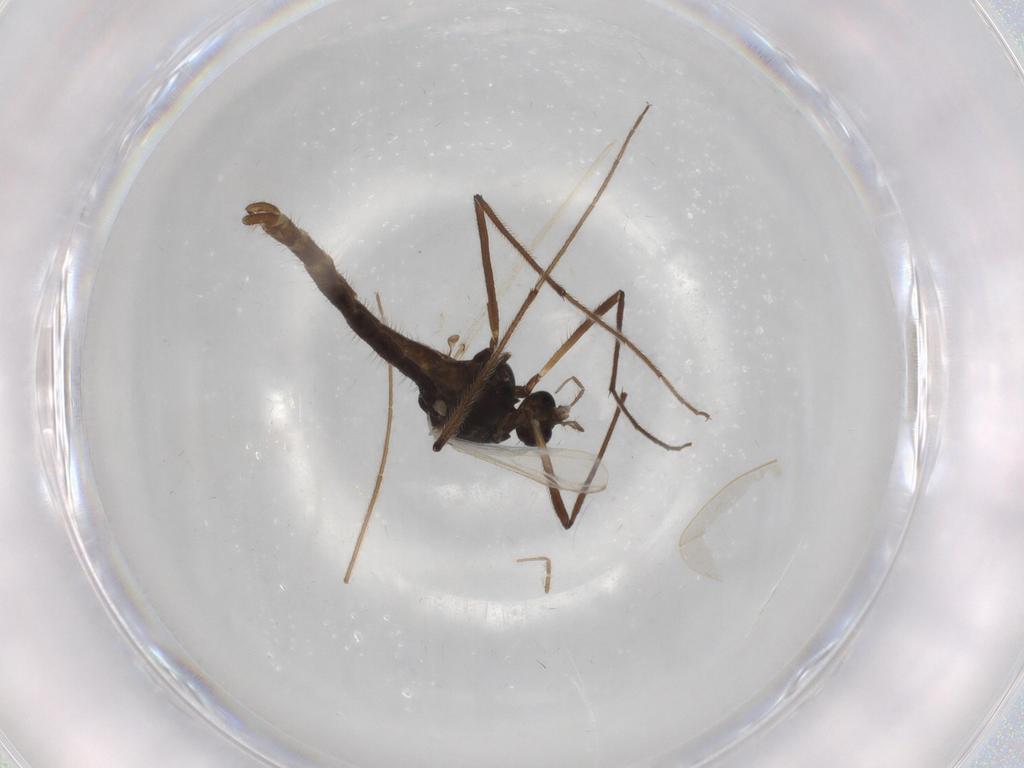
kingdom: Animalia
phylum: Arthropoda
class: Insecta
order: Diptera
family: Chironomidae
